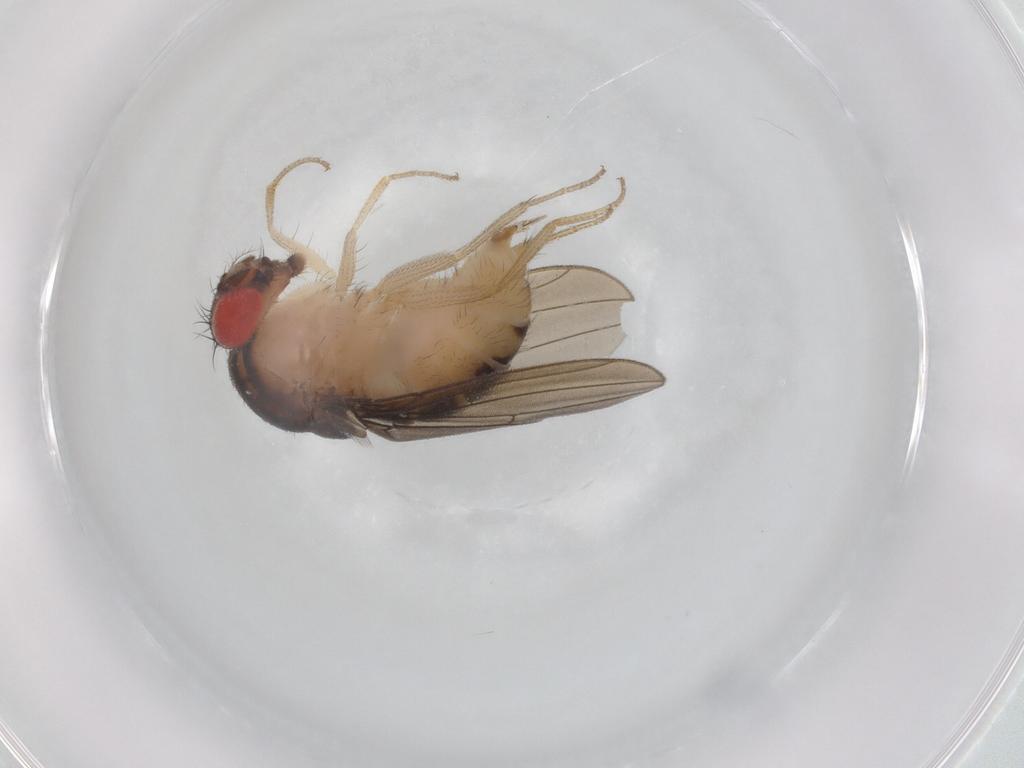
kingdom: Animalia
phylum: Arthropoda
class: Insecta
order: Diptera
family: Drosophilidae
